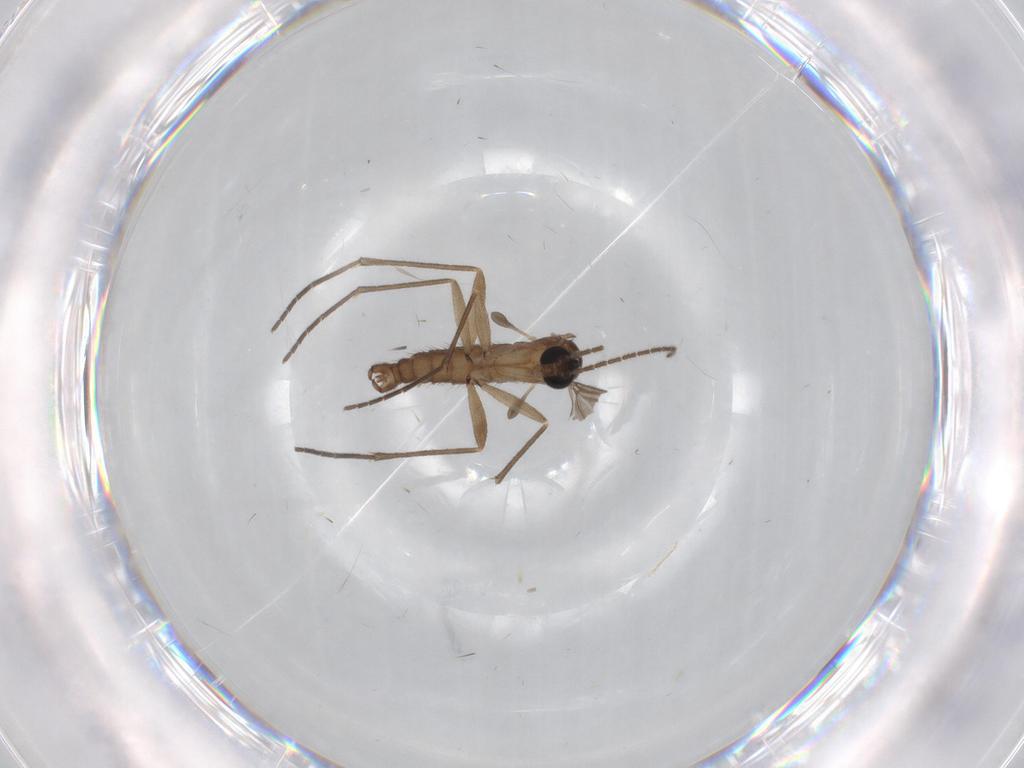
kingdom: Animalia
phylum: Arthropoda
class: Insecta
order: Diptera
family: Sciaridae
